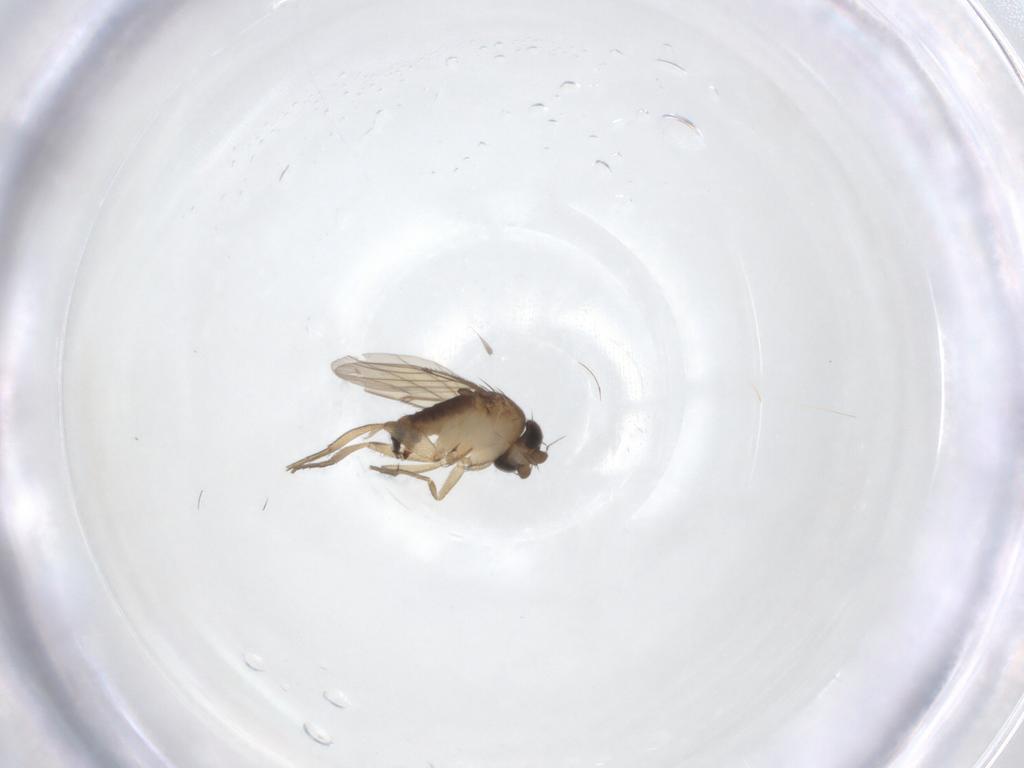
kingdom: Animalia
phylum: Arthropoda
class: Insecta
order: Diptera
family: Phoridae
